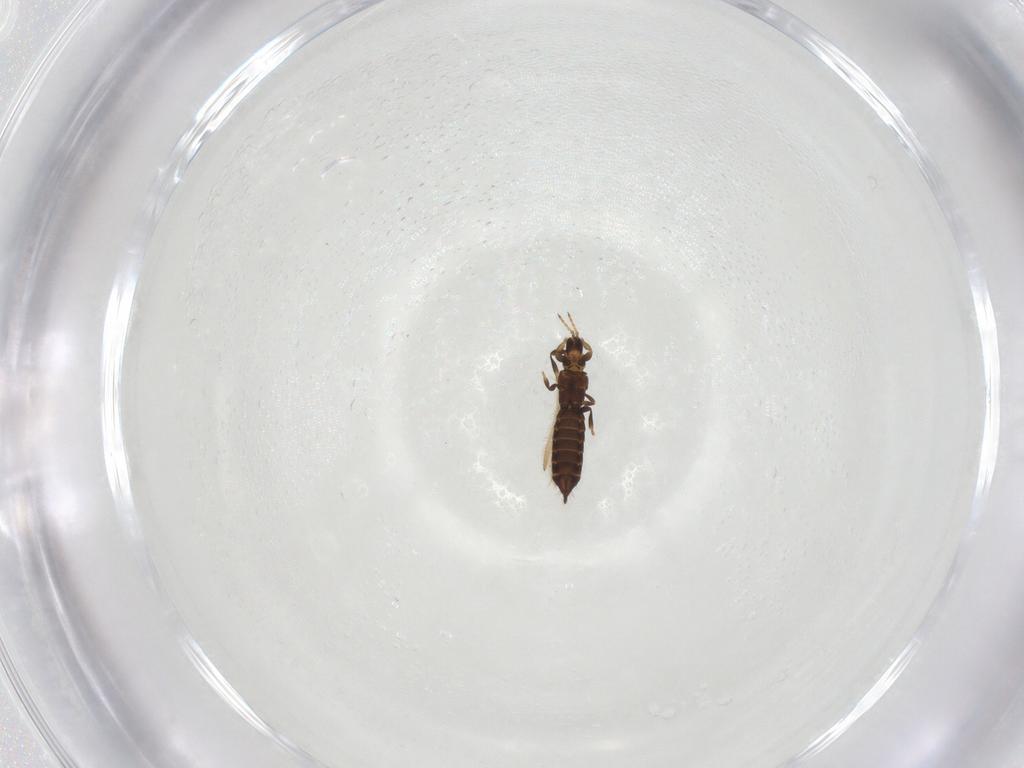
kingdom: Animalia
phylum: Arthropoda
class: Insecta
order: Thysanoptera
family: Thripidae
